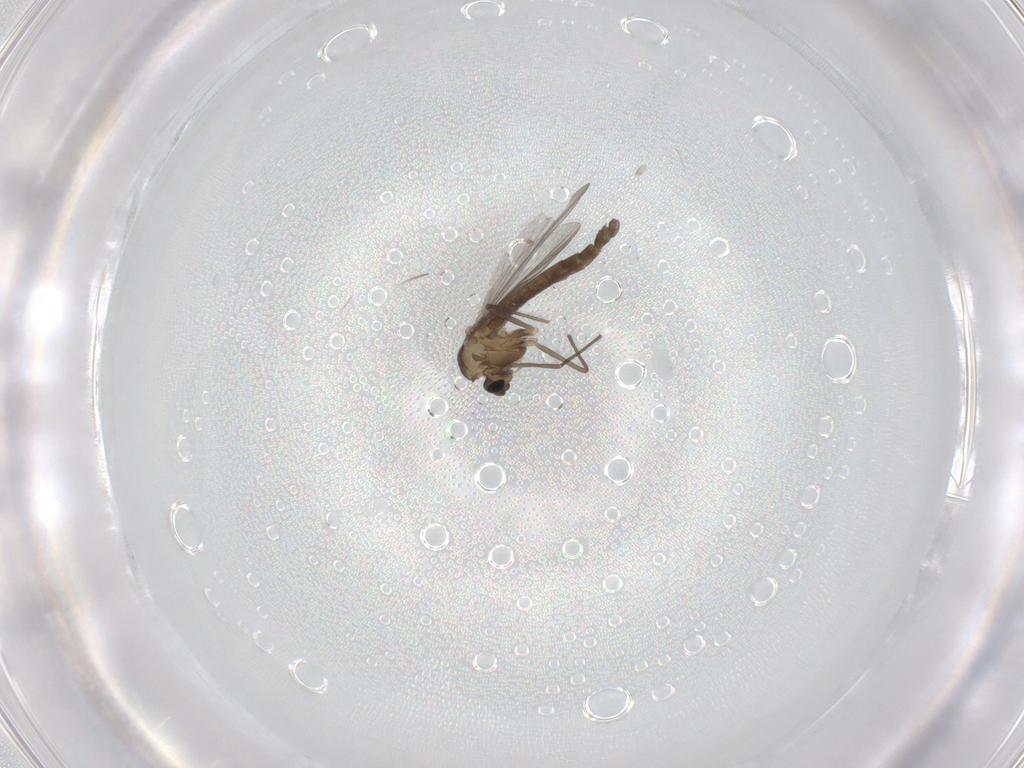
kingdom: Animalia
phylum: Arthropoda
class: Insecta
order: Diptera
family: Chironomidae
